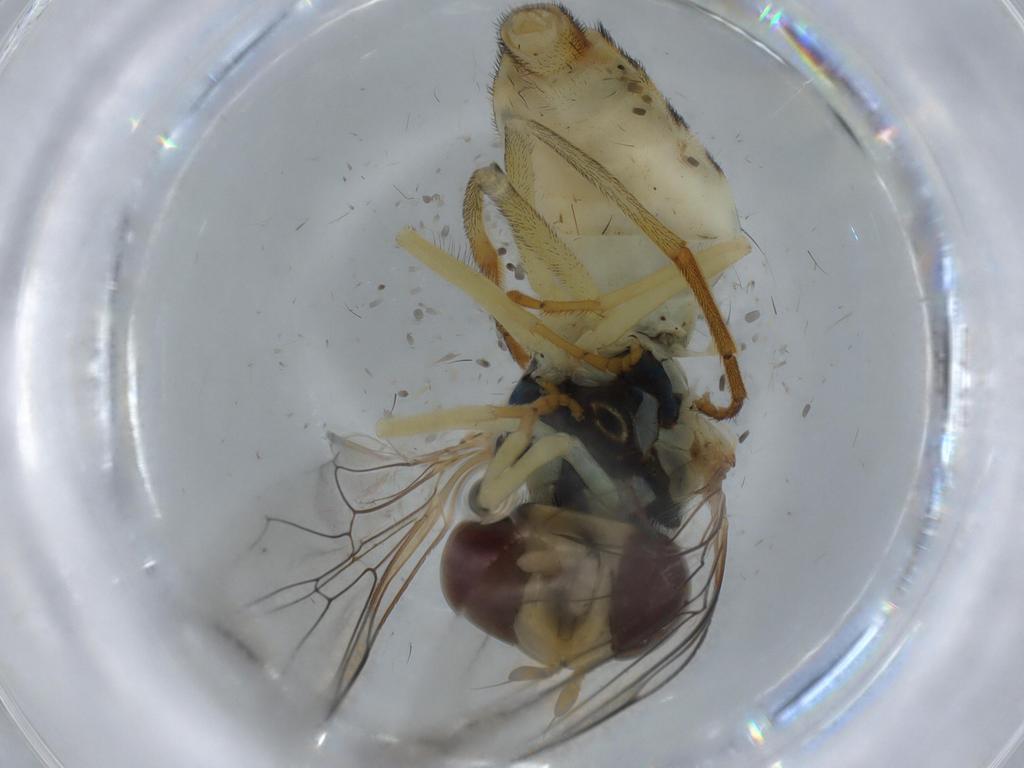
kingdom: Animalia
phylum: Arthropoda
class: Insecta
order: Diptera
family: Syrphidae
